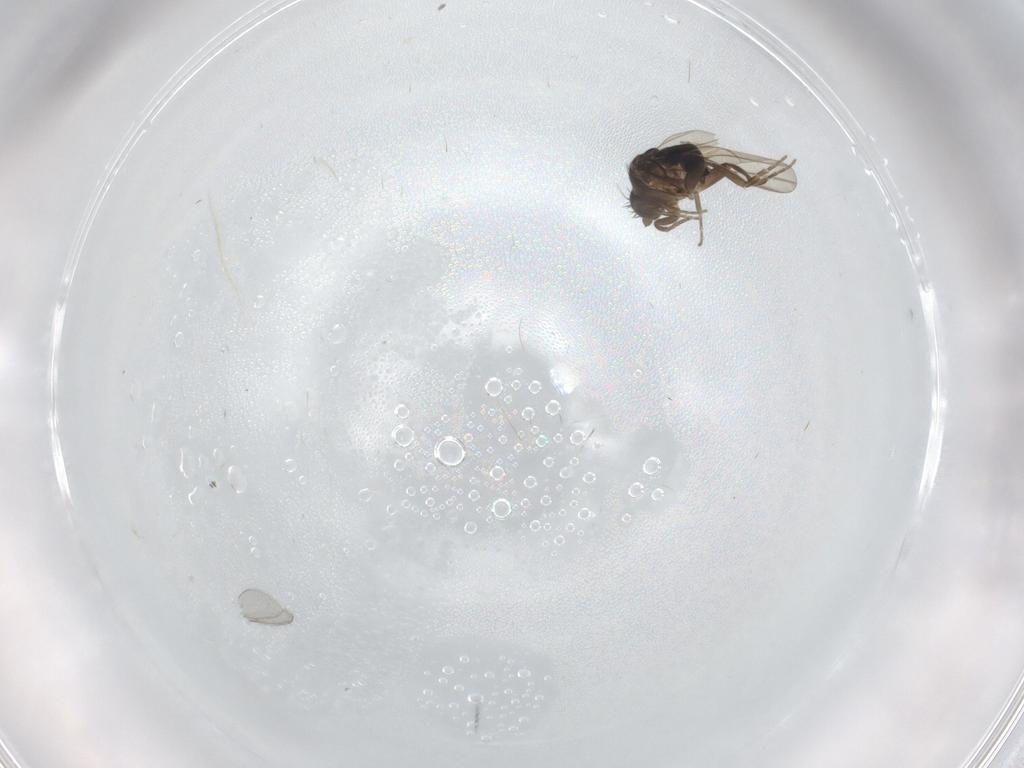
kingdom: Animalia
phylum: Arthropoda
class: Insecta
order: Diptera
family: Phoridae
